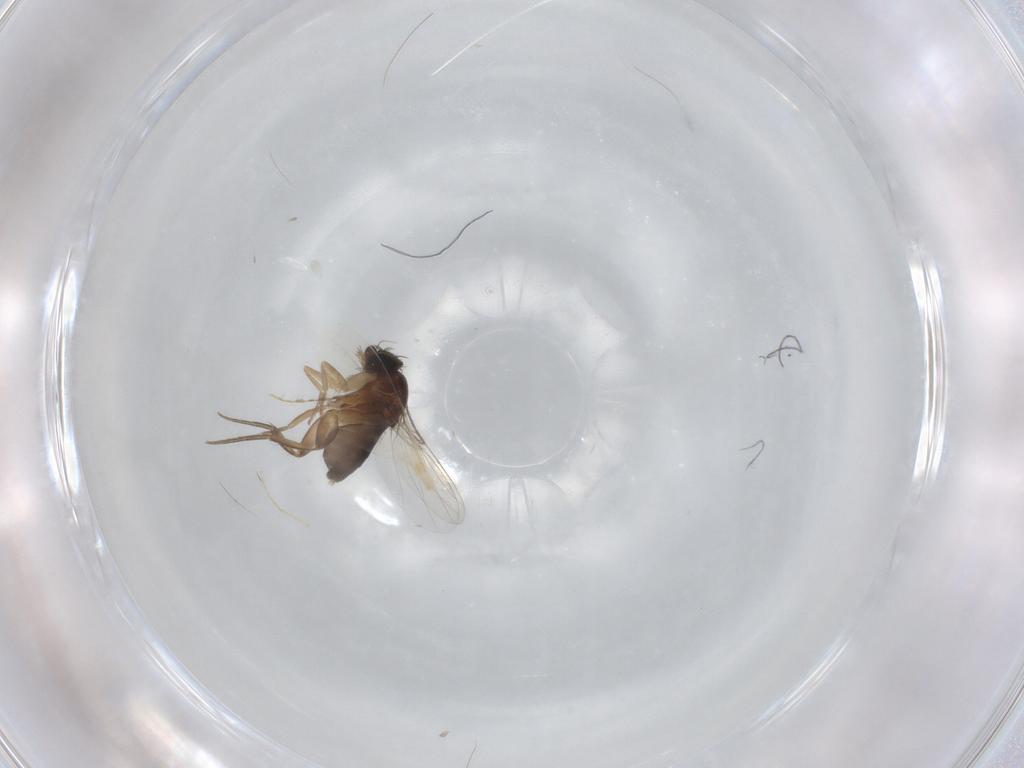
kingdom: Animalia
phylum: Arthropoda
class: Insecta
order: Diptera
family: Phoridae
